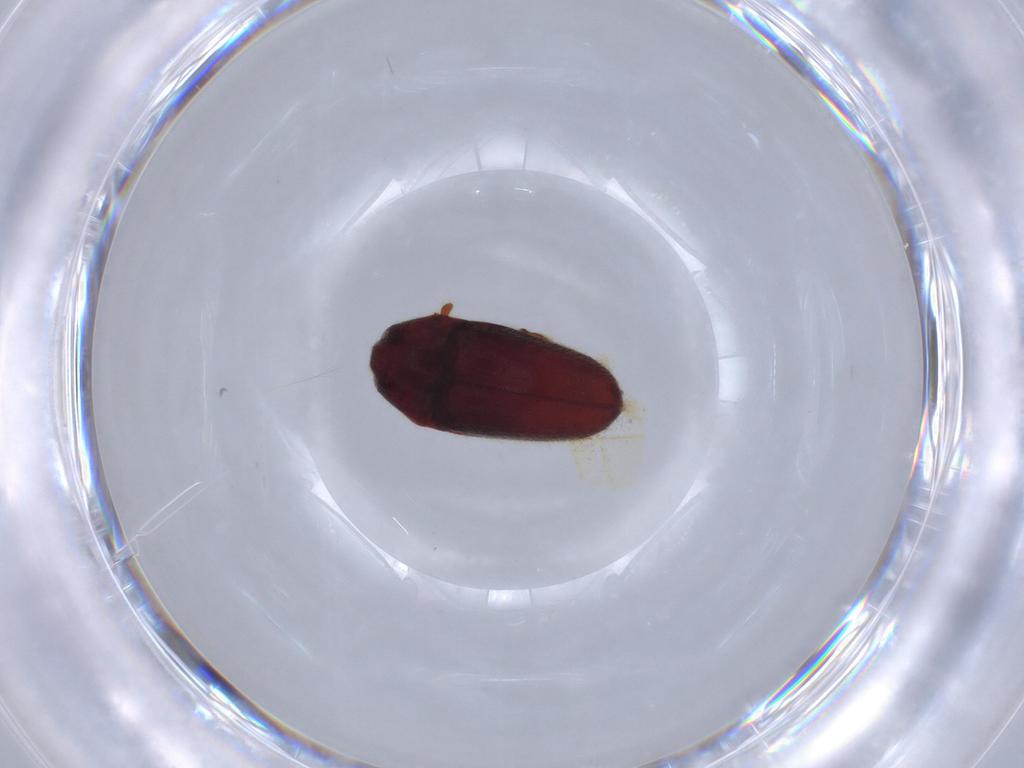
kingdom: Animalia
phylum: Arthropoda
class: Insecta
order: Coleoptera
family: Throscidae
